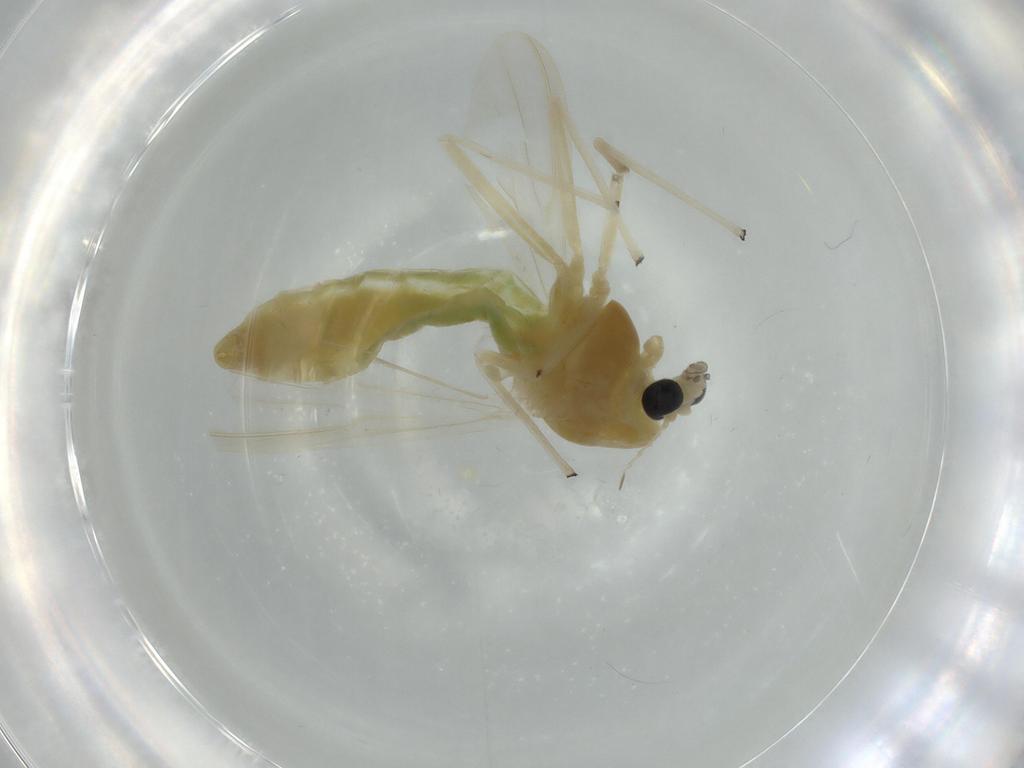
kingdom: Animalia
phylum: Arthropoda
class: Insecta
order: Diptera
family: Chironomidae
